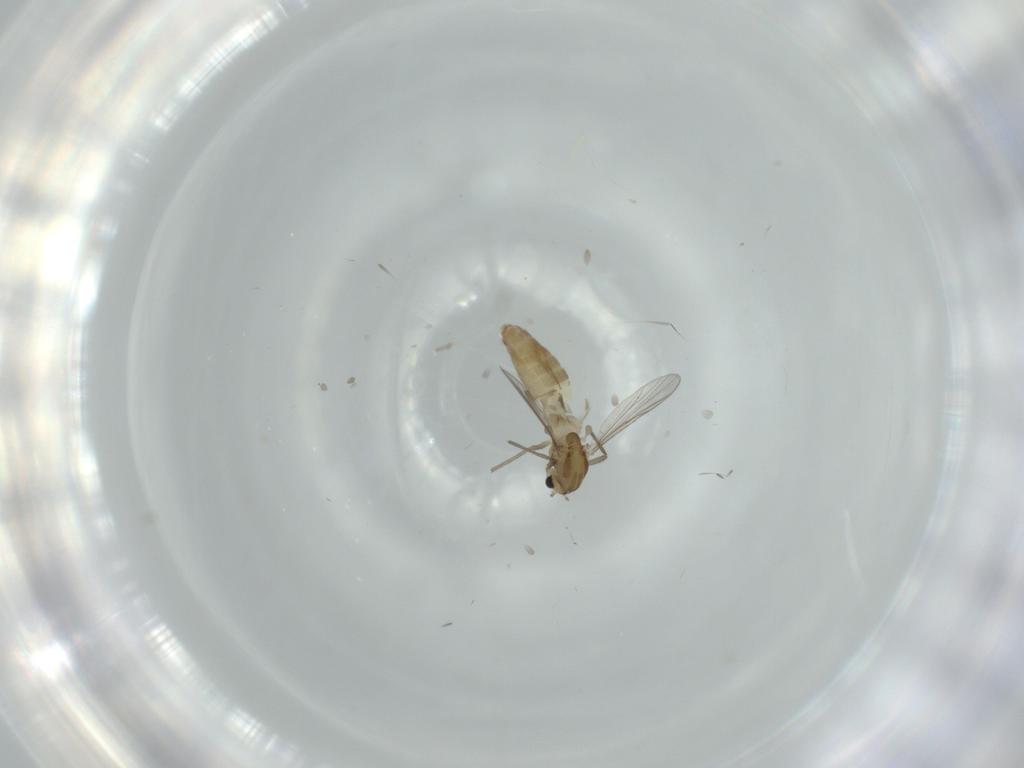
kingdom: Animalia
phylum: Arthropoda
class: Insecta
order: Diptera
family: Chironomidae
